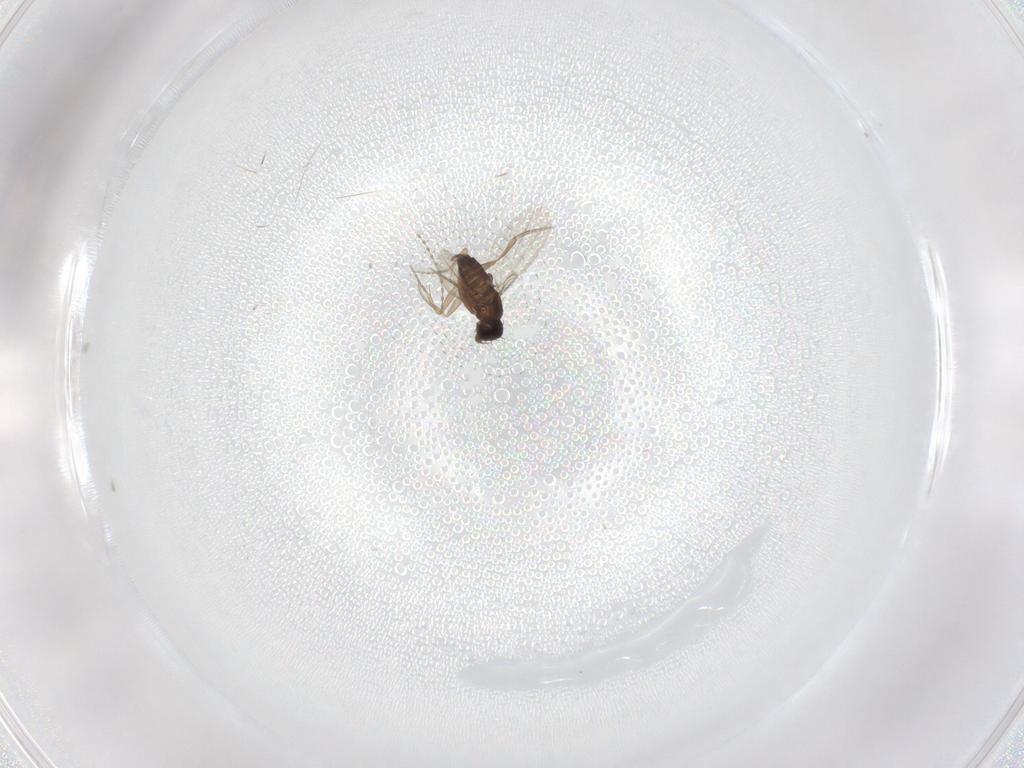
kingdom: Animalia
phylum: Arthropoda
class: Insecta
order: Diptera
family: Phoridae
